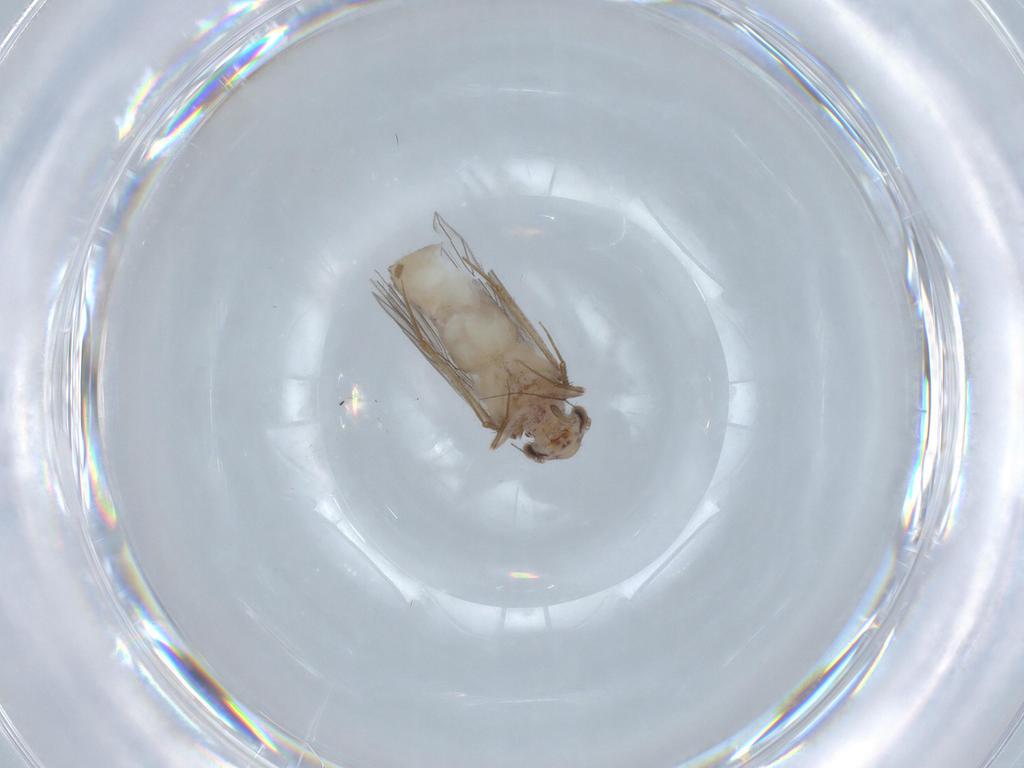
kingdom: Animalia
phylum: Arthropoda
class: Insecta
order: Psocodea
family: Lepidopsocidae
